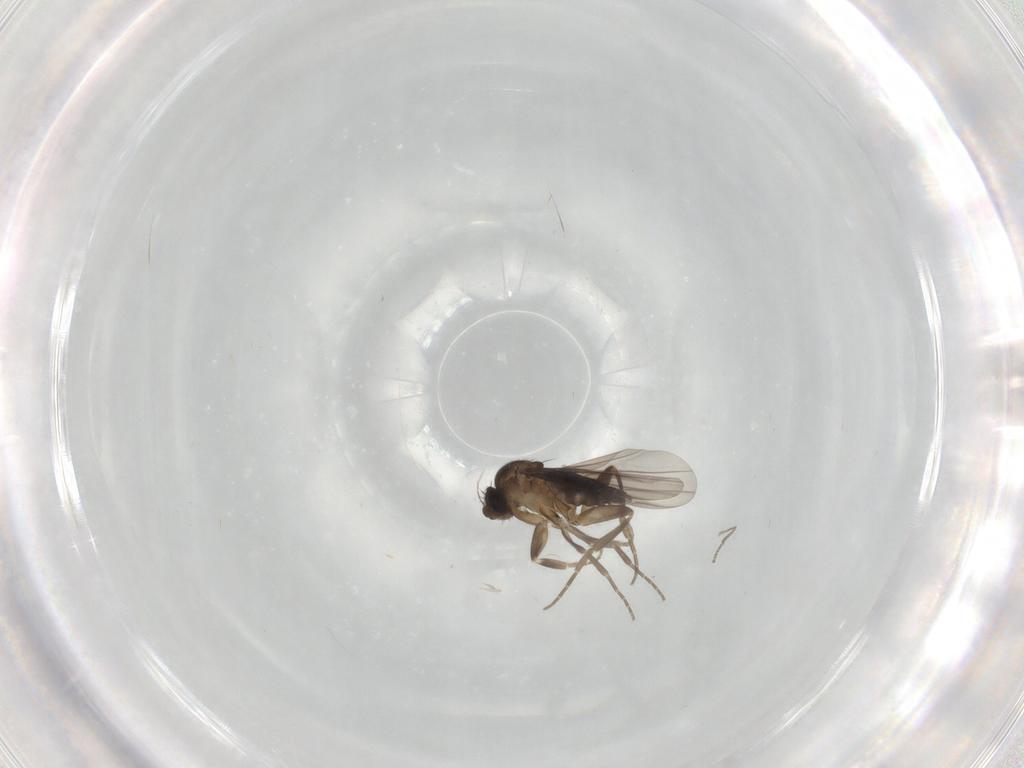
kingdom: Animalia
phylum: Arthropoda
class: Insecta
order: Diptera
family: Phoridae
